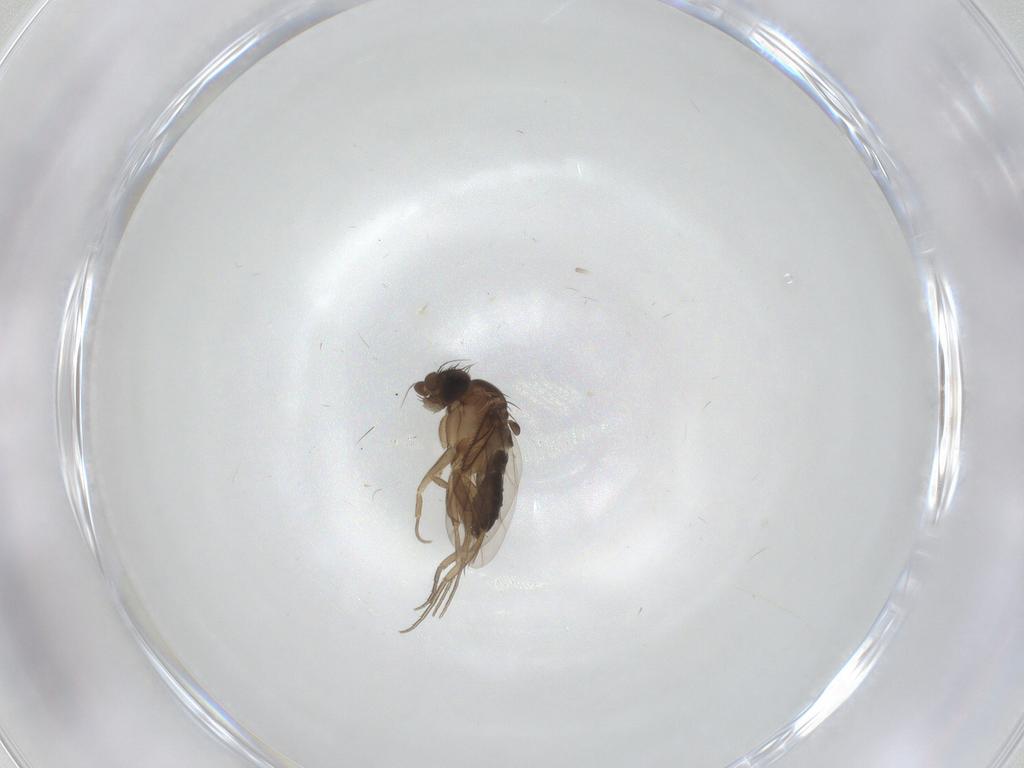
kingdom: Animalia
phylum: Arthropoda
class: Insecta
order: Diptera
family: Phoridae
